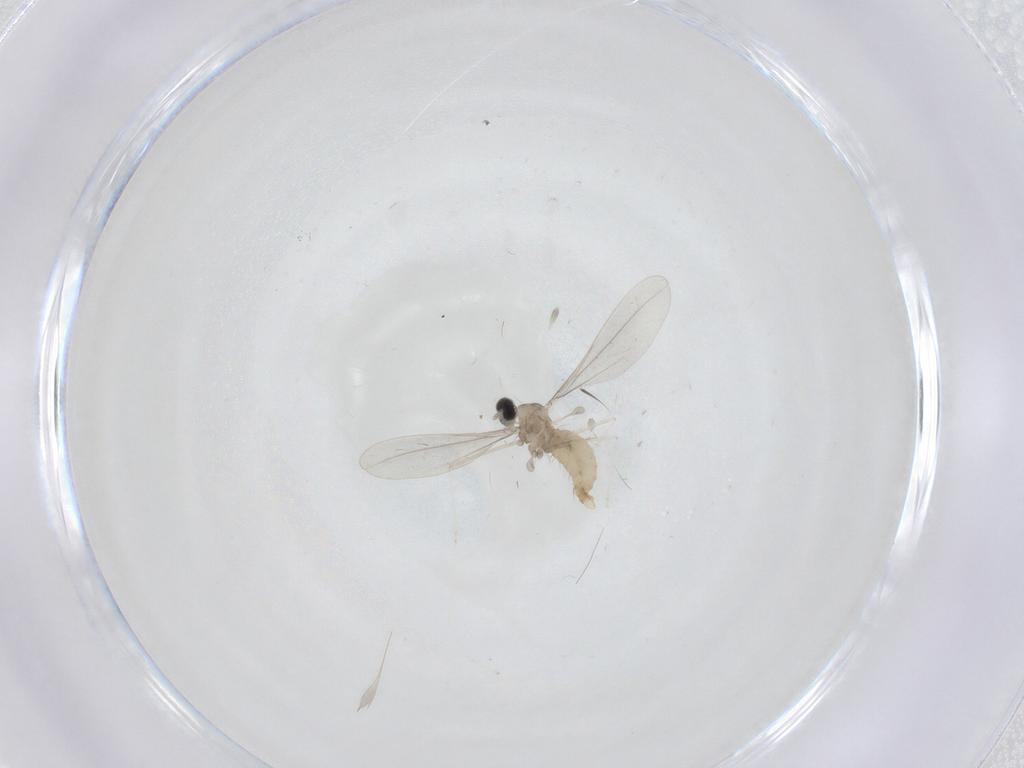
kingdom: Animalia
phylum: Arthropoda
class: Insecta
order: Diptera
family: Cecidomyiidae
